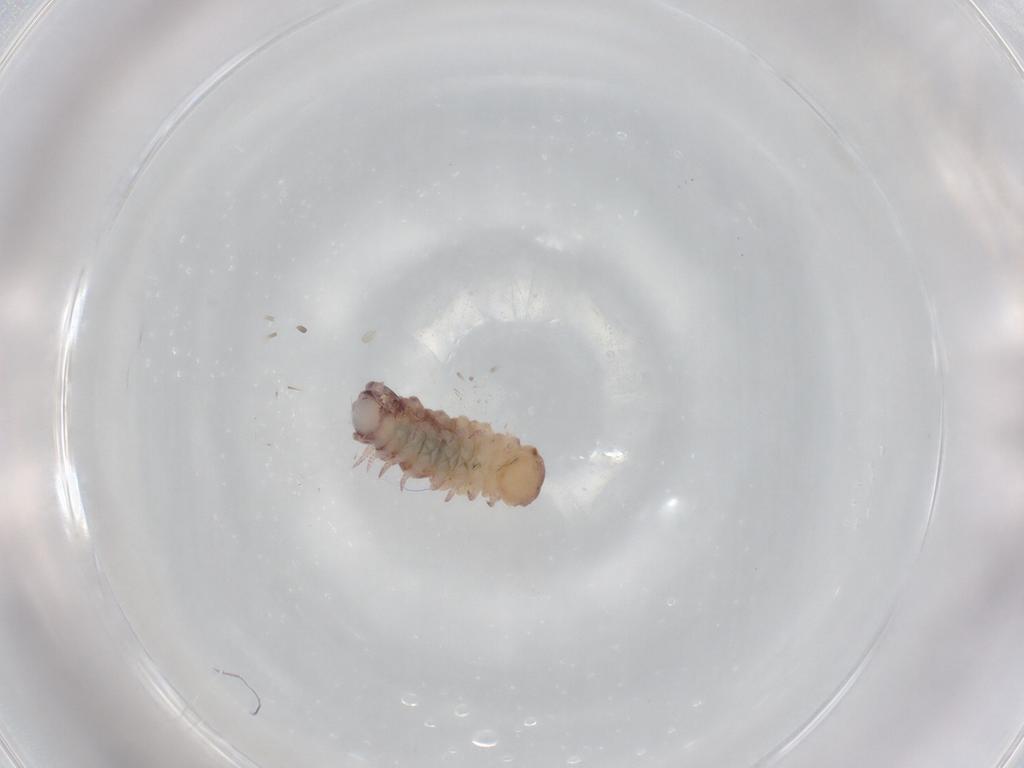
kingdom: Animalia
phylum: Arthropoda
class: Diplopoda
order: Polyxenida
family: Polyxenidae
